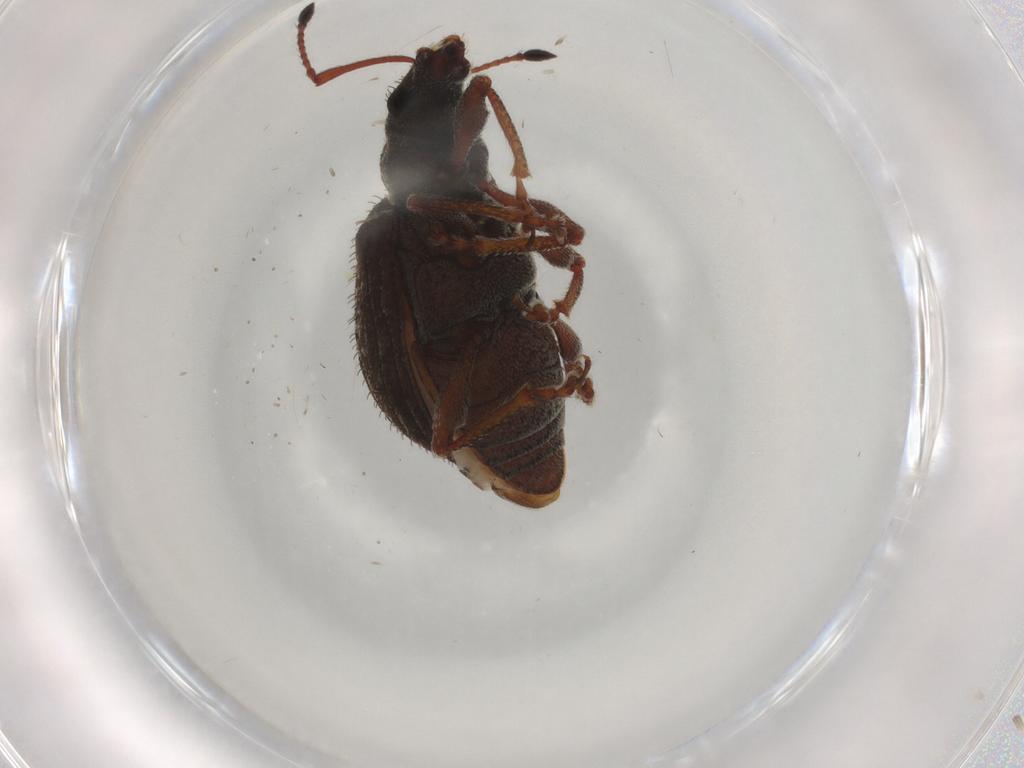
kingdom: Animalia
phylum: Arthropoda
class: Insecta
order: Coleoptera
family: Curculionidae
